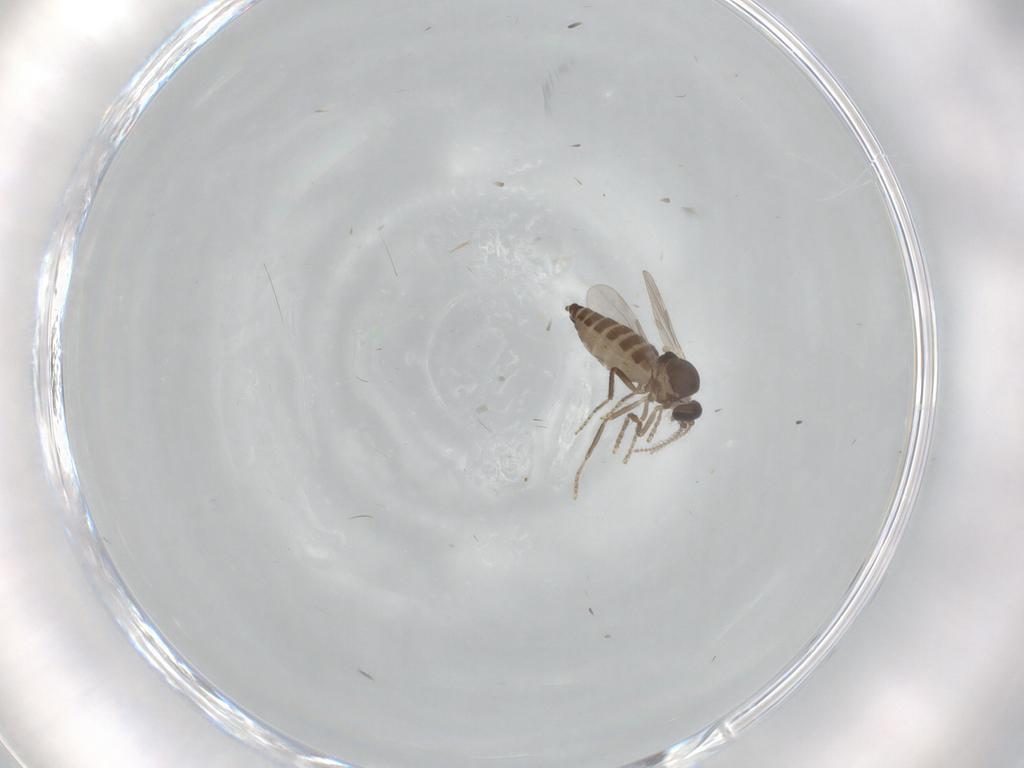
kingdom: Animalia
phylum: Arthropoda
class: Insecta
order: Diptera
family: Ceratopogonidae
